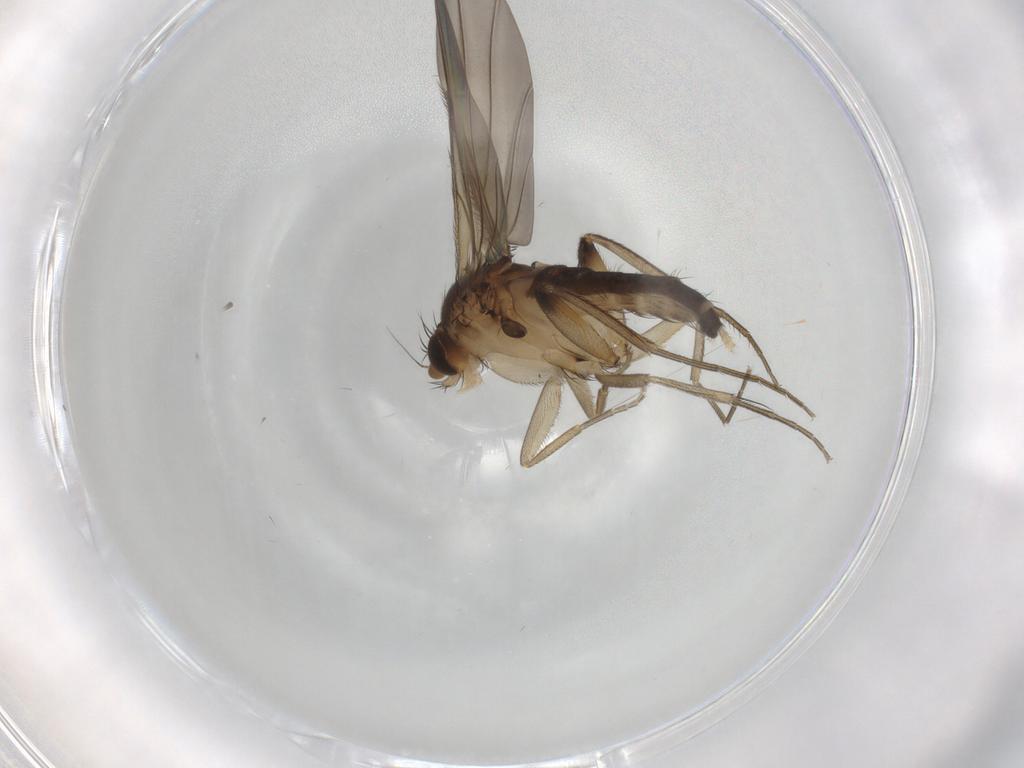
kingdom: Animalia
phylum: Arthropoda
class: Insecta
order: Diptera
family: Phoridae
